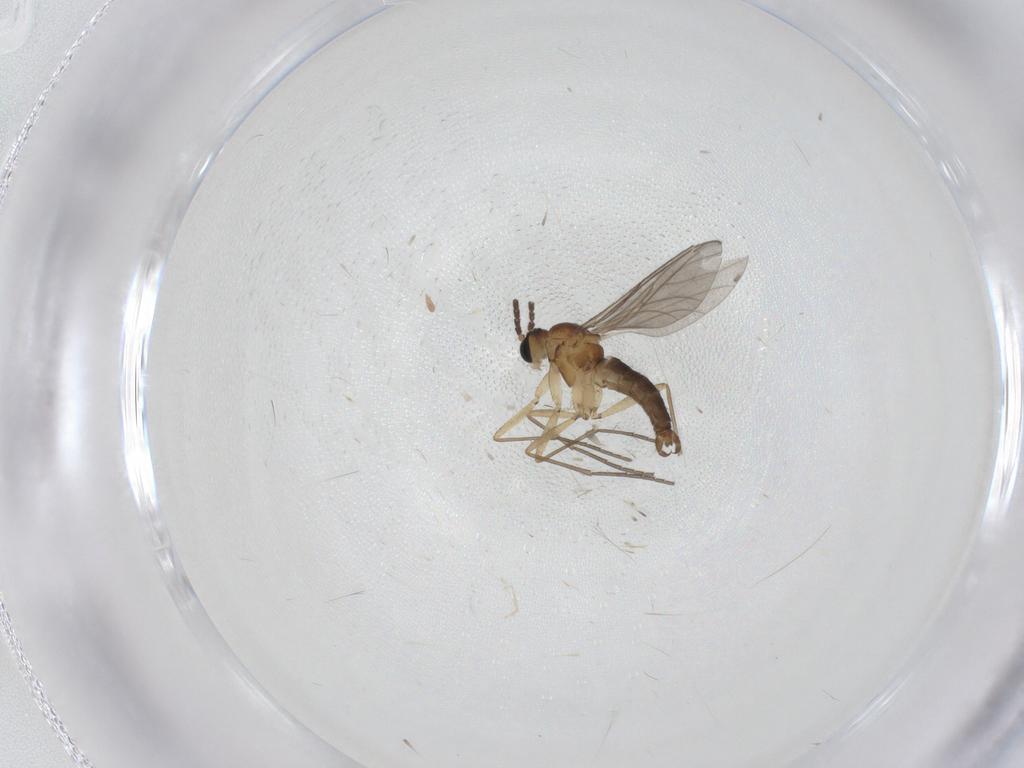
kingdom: Animalia
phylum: Arthropoda
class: Insecta
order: Diptera
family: Sciaridae
